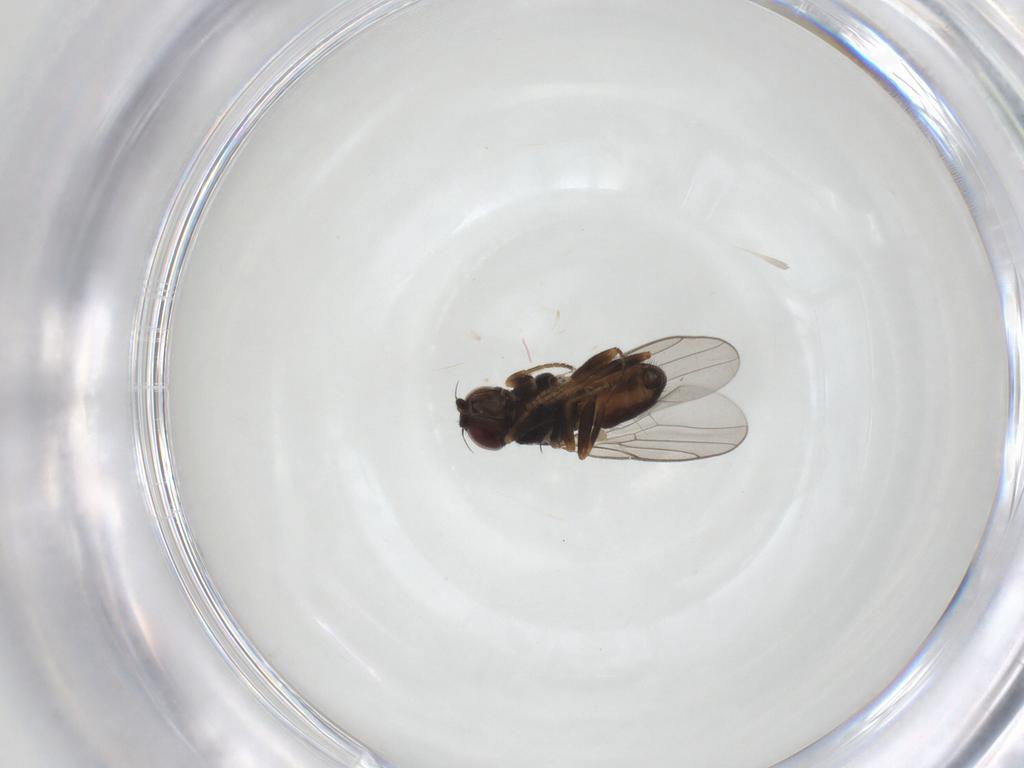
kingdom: Animalia
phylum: Arthropoda
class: Insecta
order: Diptera
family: Chloropidae
